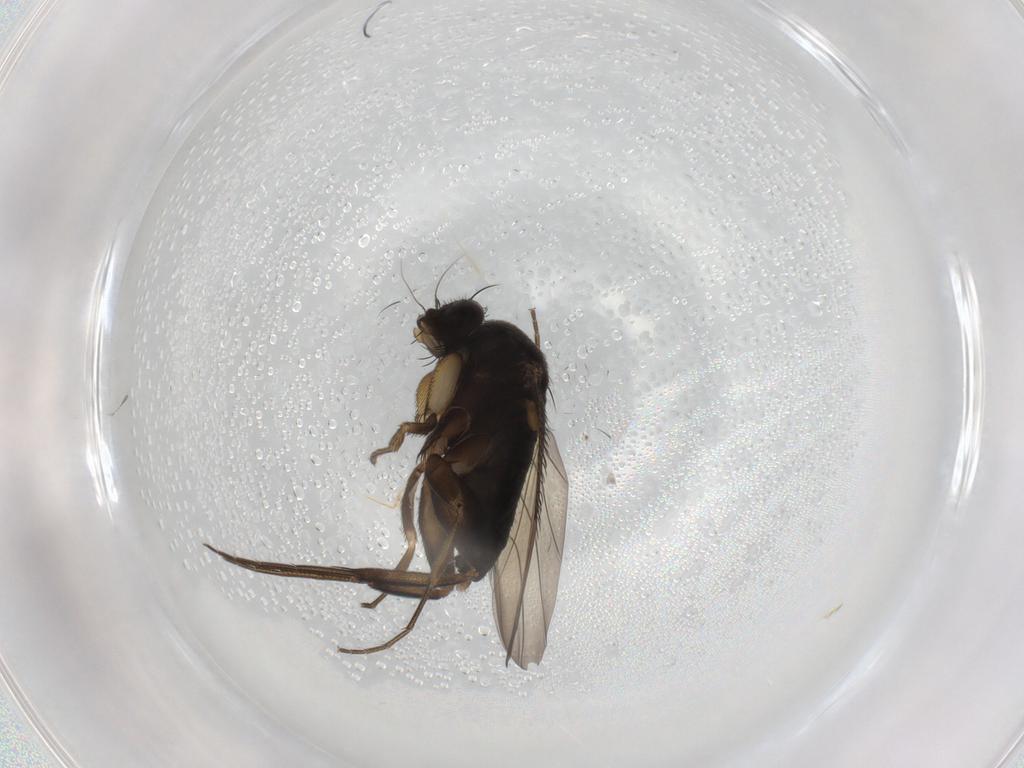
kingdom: Animalia
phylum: Arthropoda
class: Insecta
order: Diptera
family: Phoridae
